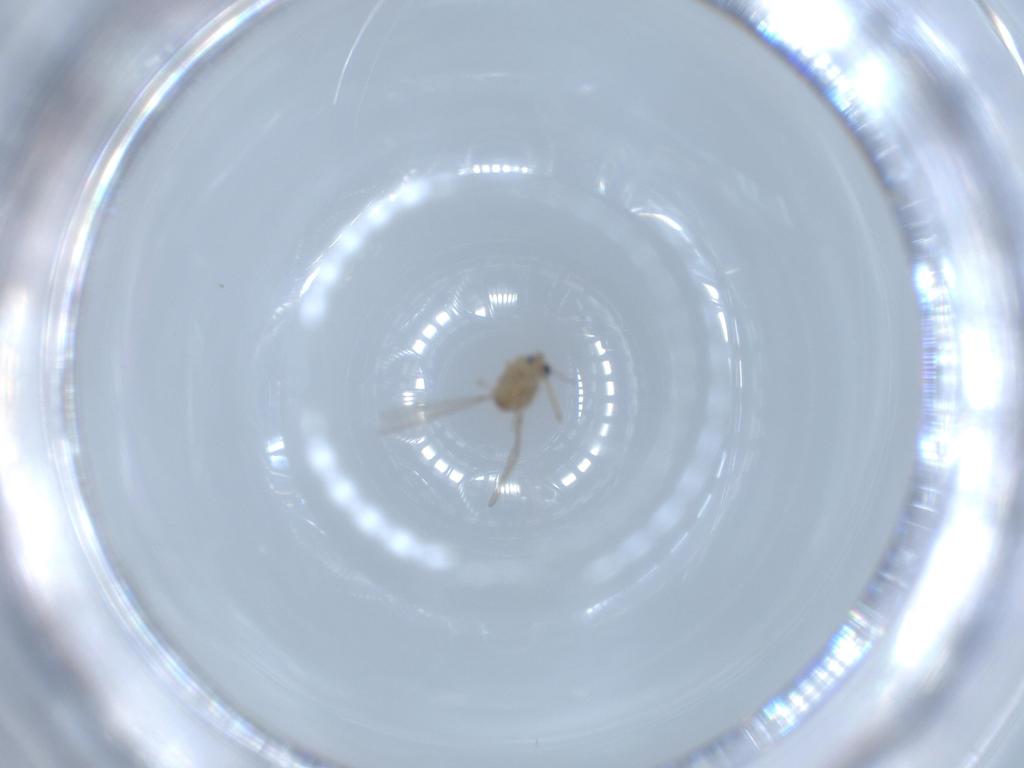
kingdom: Animalia
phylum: Arthropoda
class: Insecta
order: Diptera
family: Chironomidae
